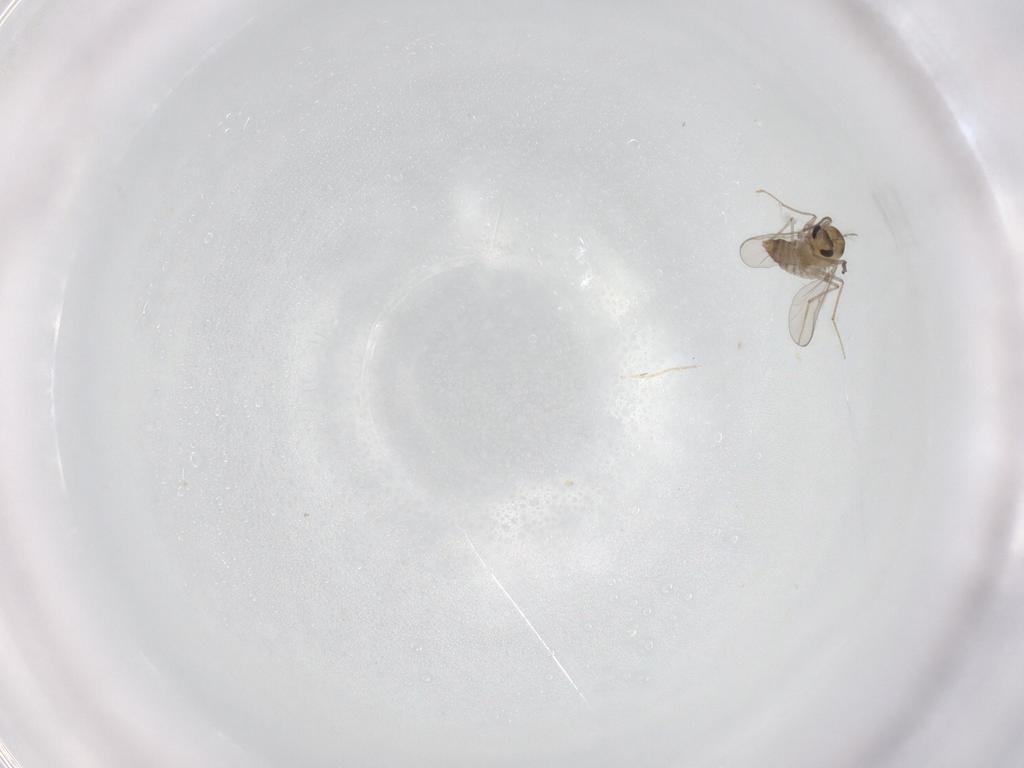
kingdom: Animalia
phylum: Arthropoda
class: Insecta
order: Diptera
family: Chironomidae
